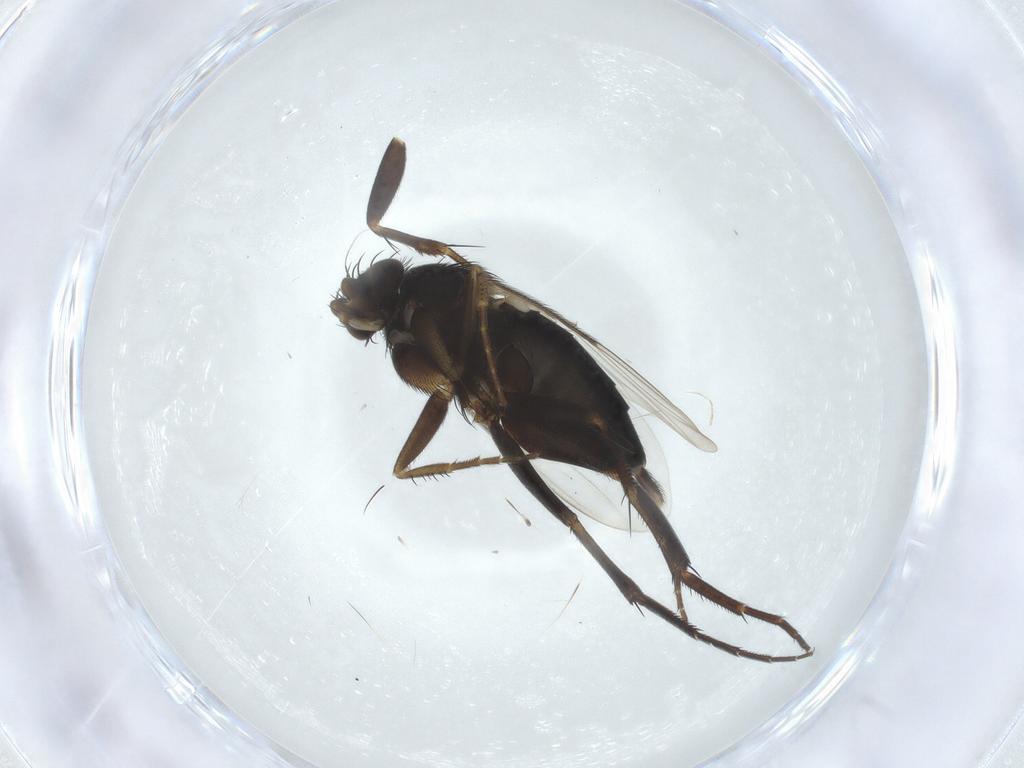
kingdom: Animalia
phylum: Arthropoda
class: Insecta
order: Diptera
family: Phoridae
